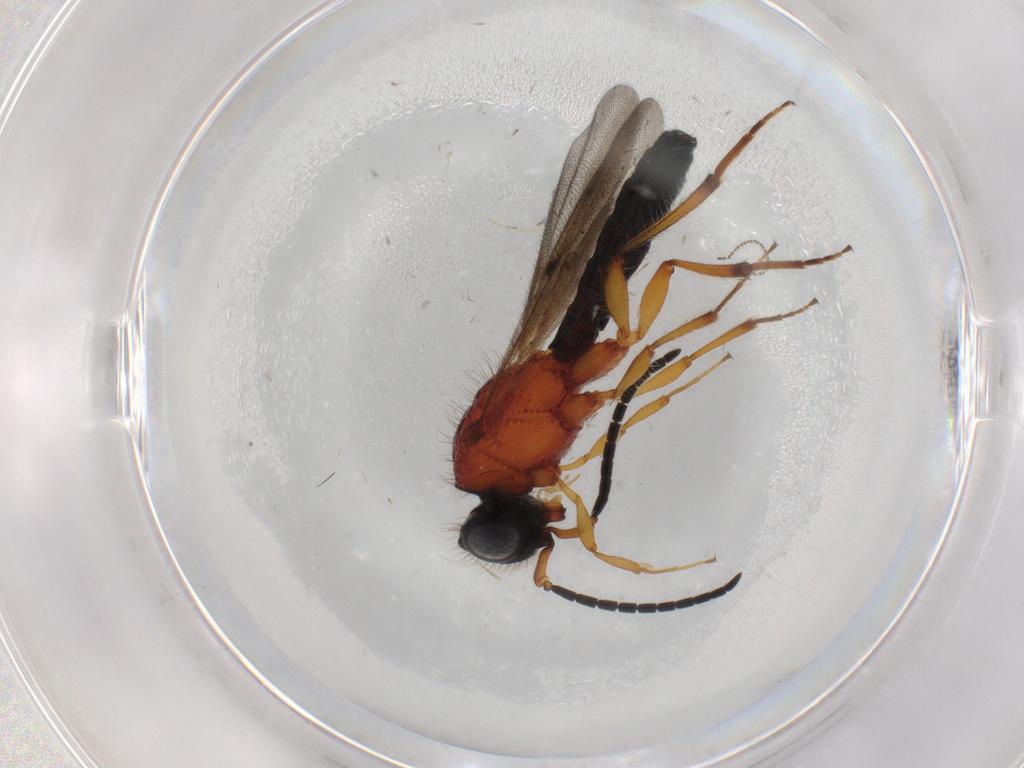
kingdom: Animalia
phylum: Arthropoda
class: Insecta
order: Hymenoptera
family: Scelionidae
